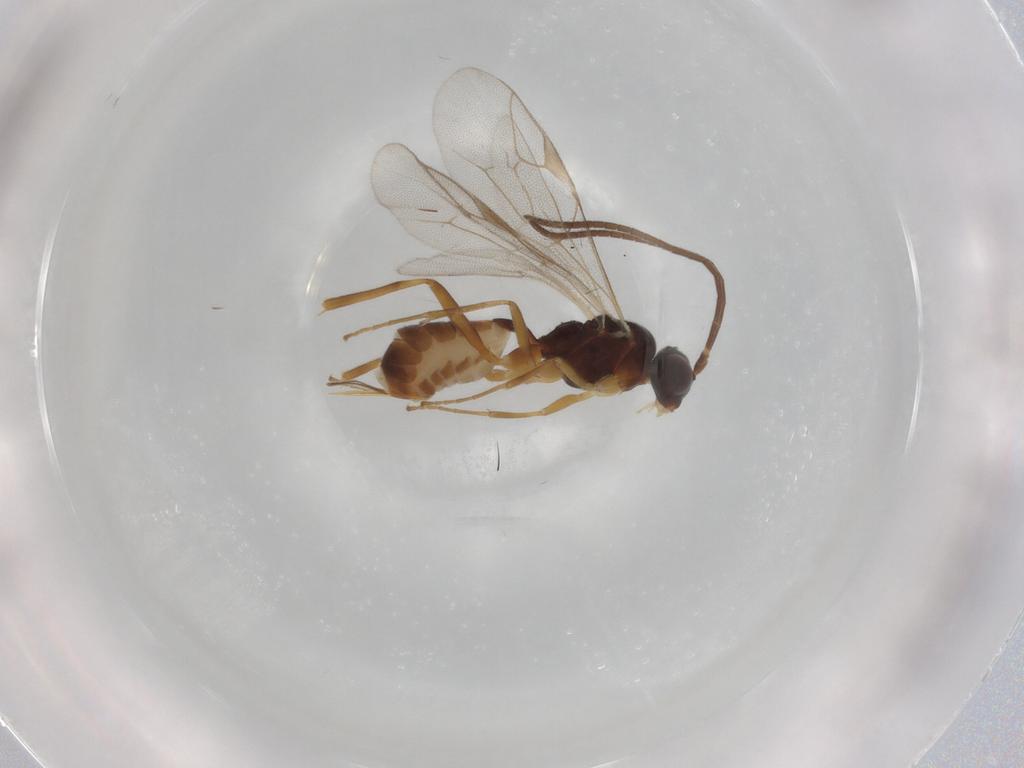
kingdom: Animalia
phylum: Arthropoda
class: Insecta
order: Hymenoptera
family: Ichneumonidae
